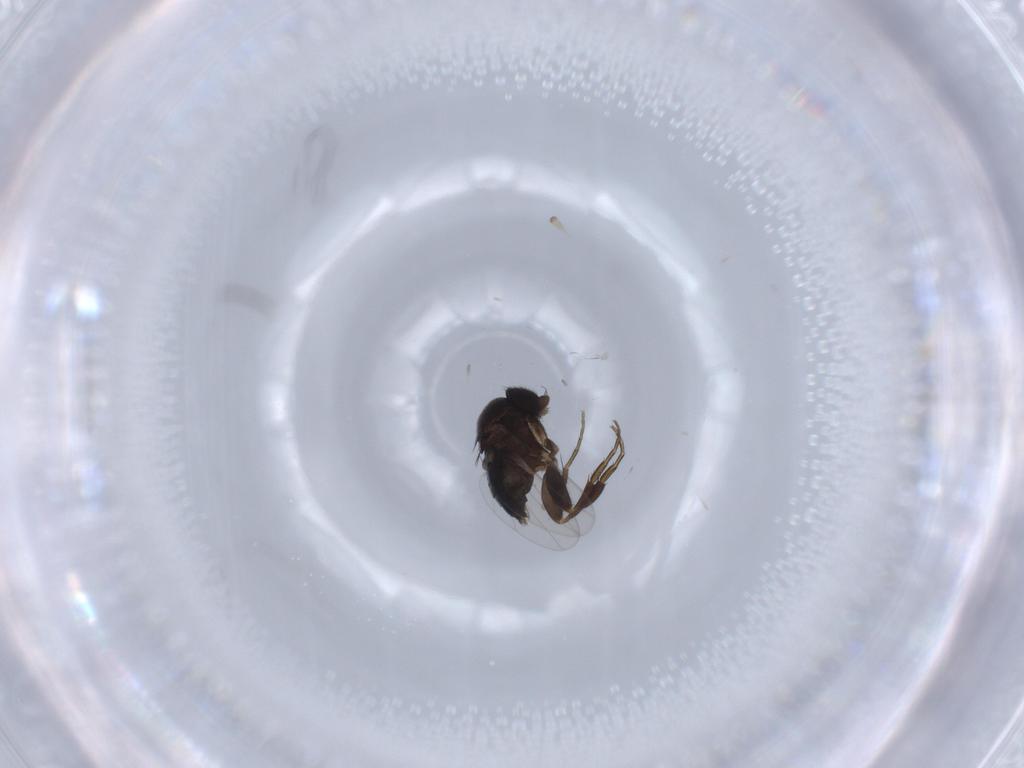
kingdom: Animalia
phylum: Arthropoda
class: Insecta
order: Diptera
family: Phoridae
